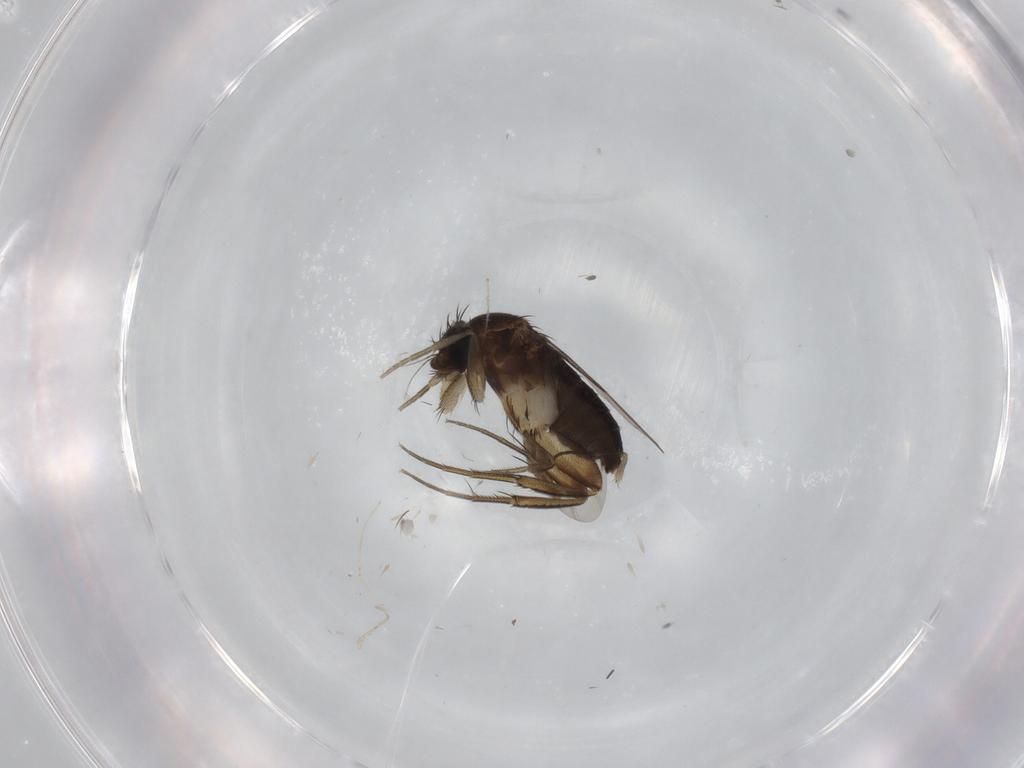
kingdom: Animalia
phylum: Arthropoda
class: Insecta
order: Diptera
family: Phoridae
